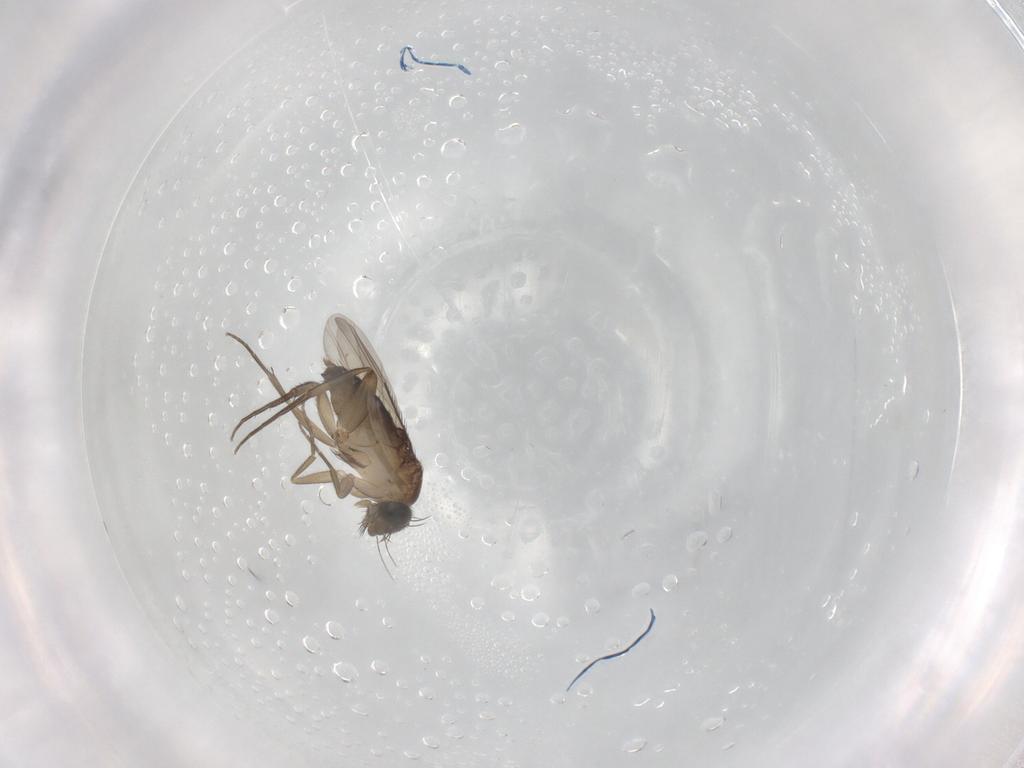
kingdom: Animalia
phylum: Arthropoda
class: Insecta
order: Diptera
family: Phoridae
